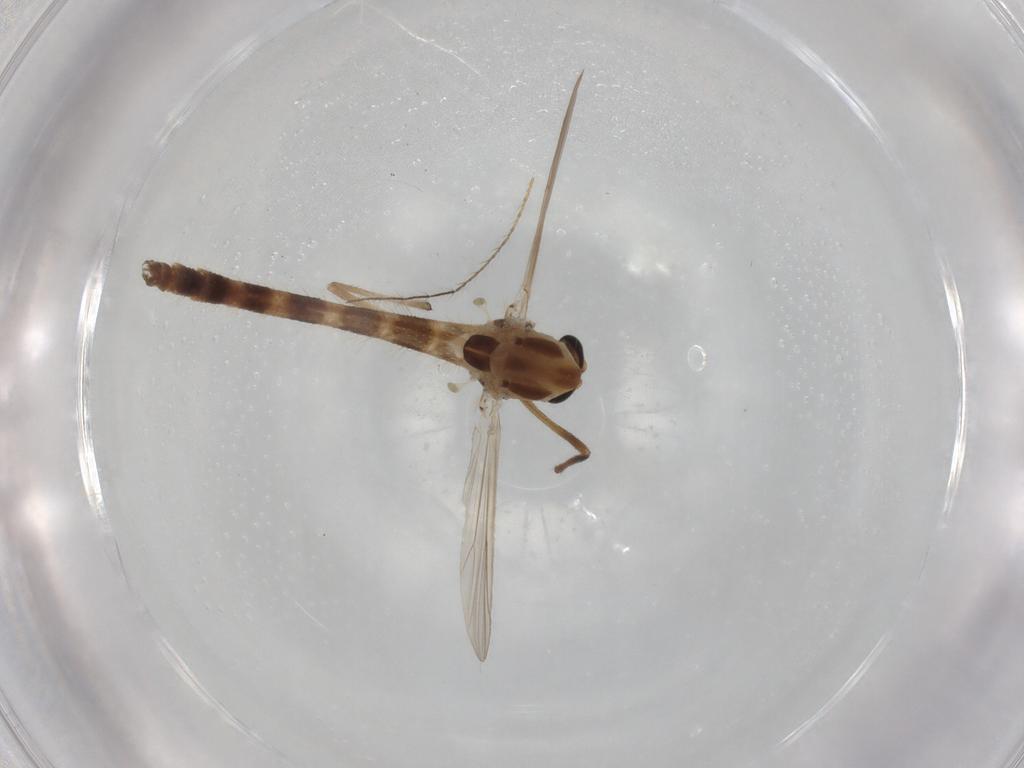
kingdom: Animalia
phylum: Arthropoda
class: Insecta
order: Diptera
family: Chironomidae
